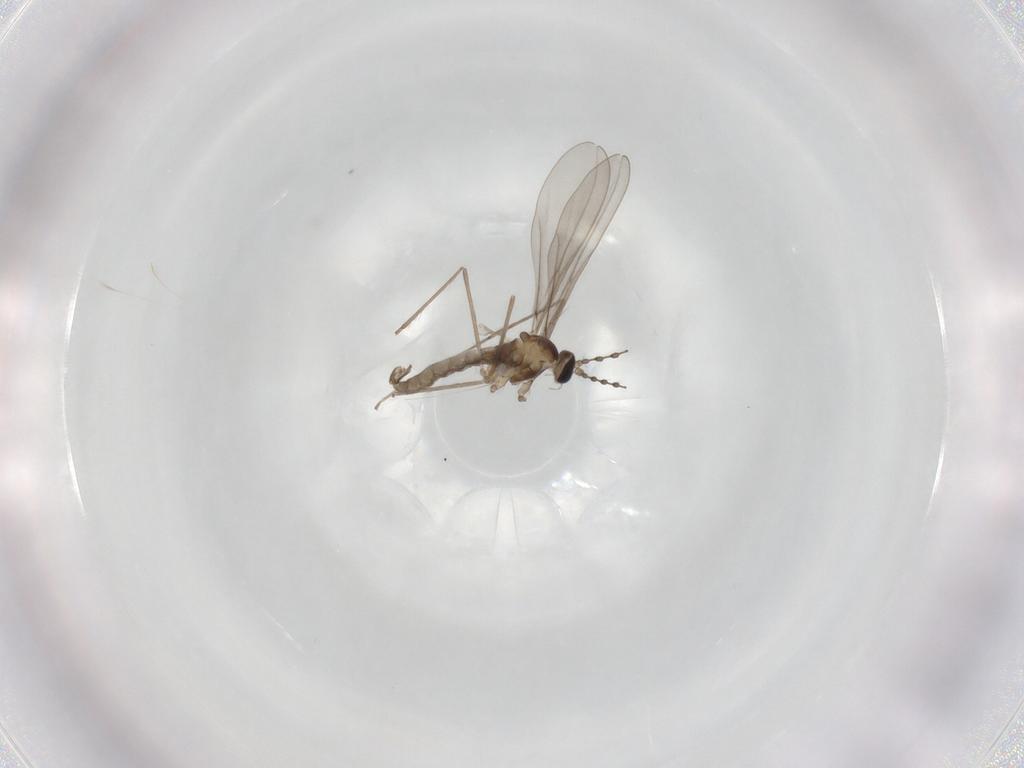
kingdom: Animalia
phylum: Arthropoda
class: Insecta
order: Diptera
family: Cecidomyiidae
